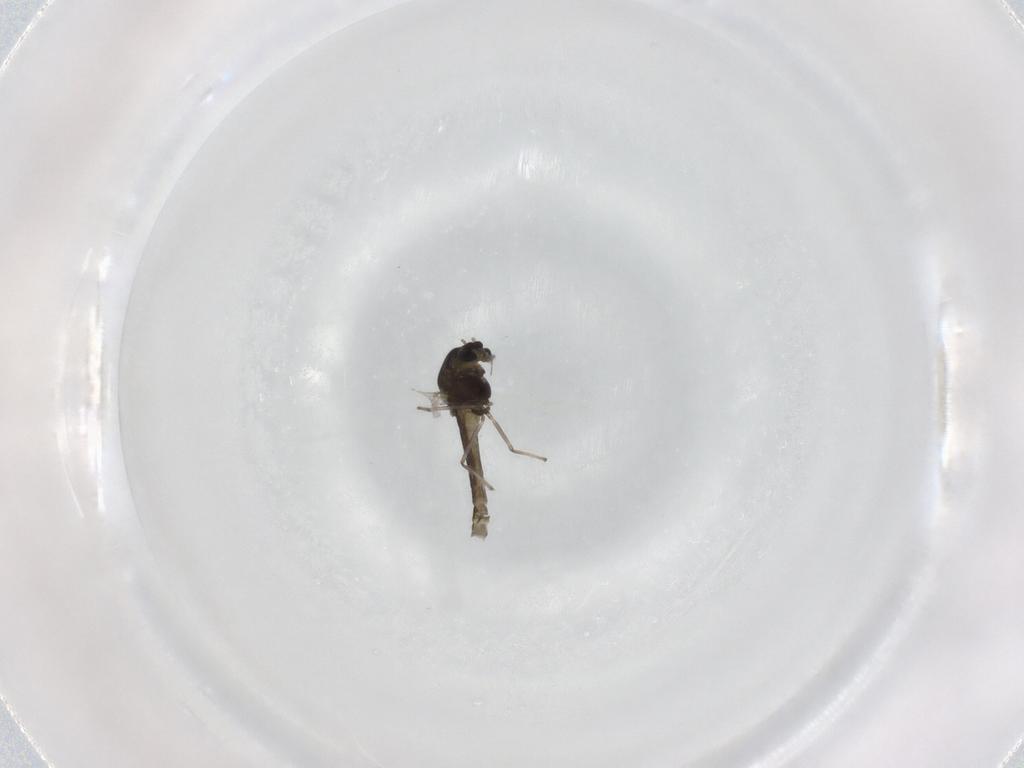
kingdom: Animalia
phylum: Arthropoda
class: Insecta
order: Diptera
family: Chironomidae
